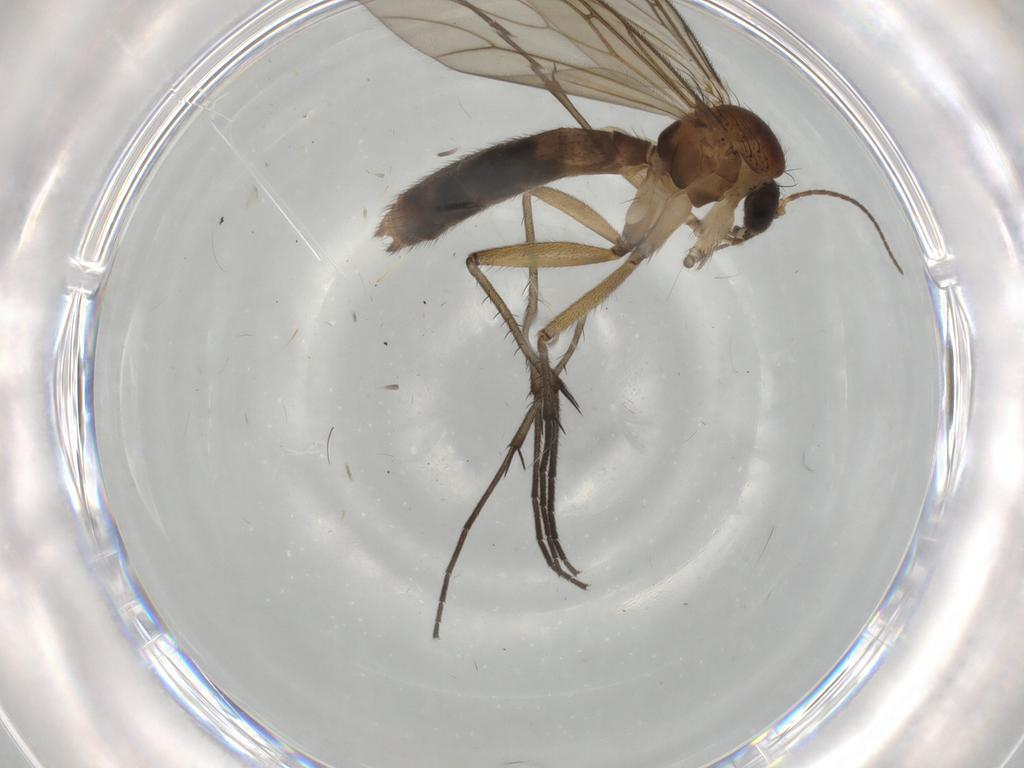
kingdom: Animalia
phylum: Arthropoda
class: Insecta
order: Diptera
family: Mycetophilidae
